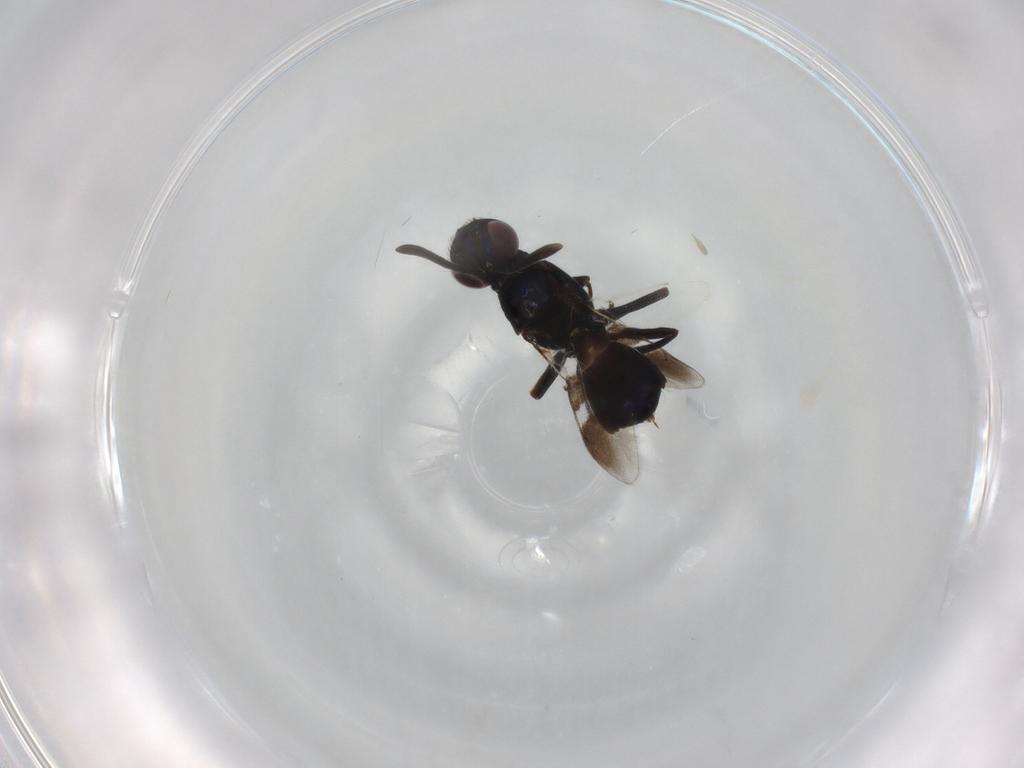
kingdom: Animalia
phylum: Arthropoda
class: Insecta
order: Hymenoptera
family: Eupelmidae
